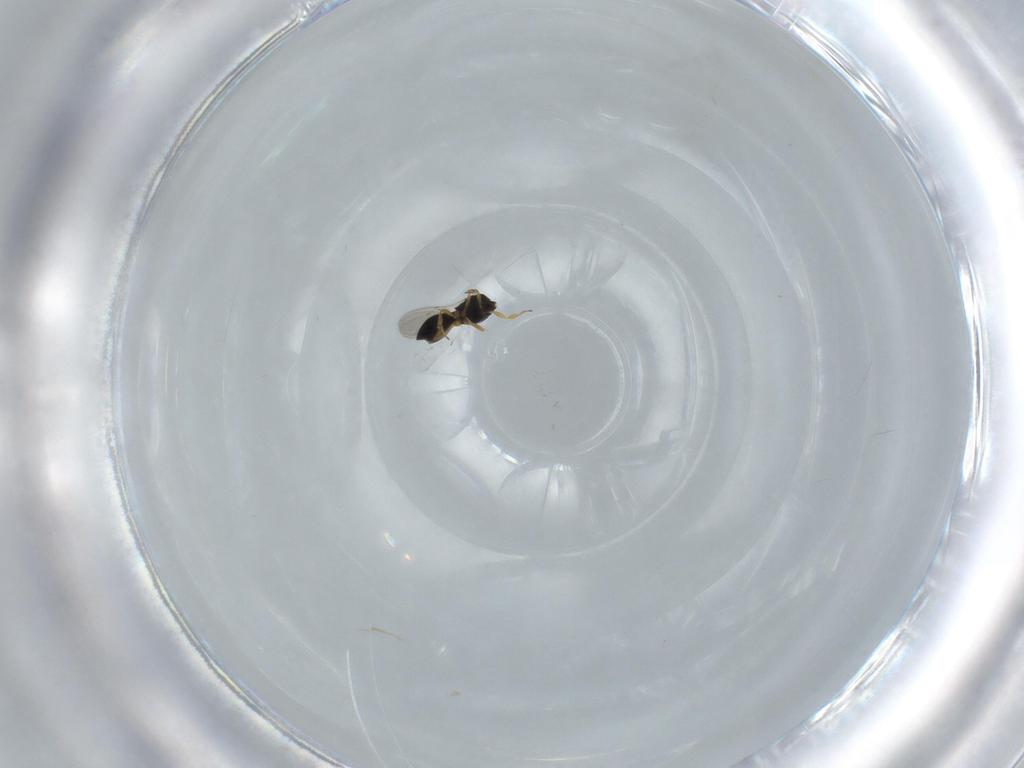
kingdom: Animalia
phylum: Arthropoda
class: Insecta
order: Hymenoptera
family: Scelionidae
